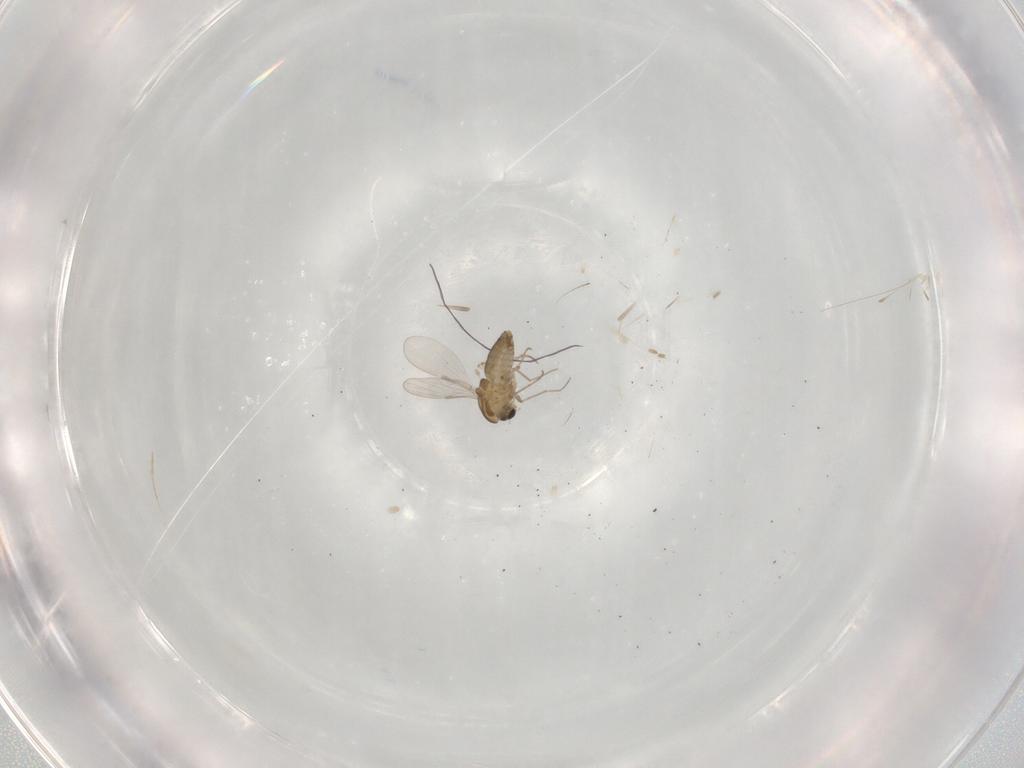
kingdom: Animalia
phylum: Arthropoda
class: Insecta
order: Diptera
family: Chironomidae
